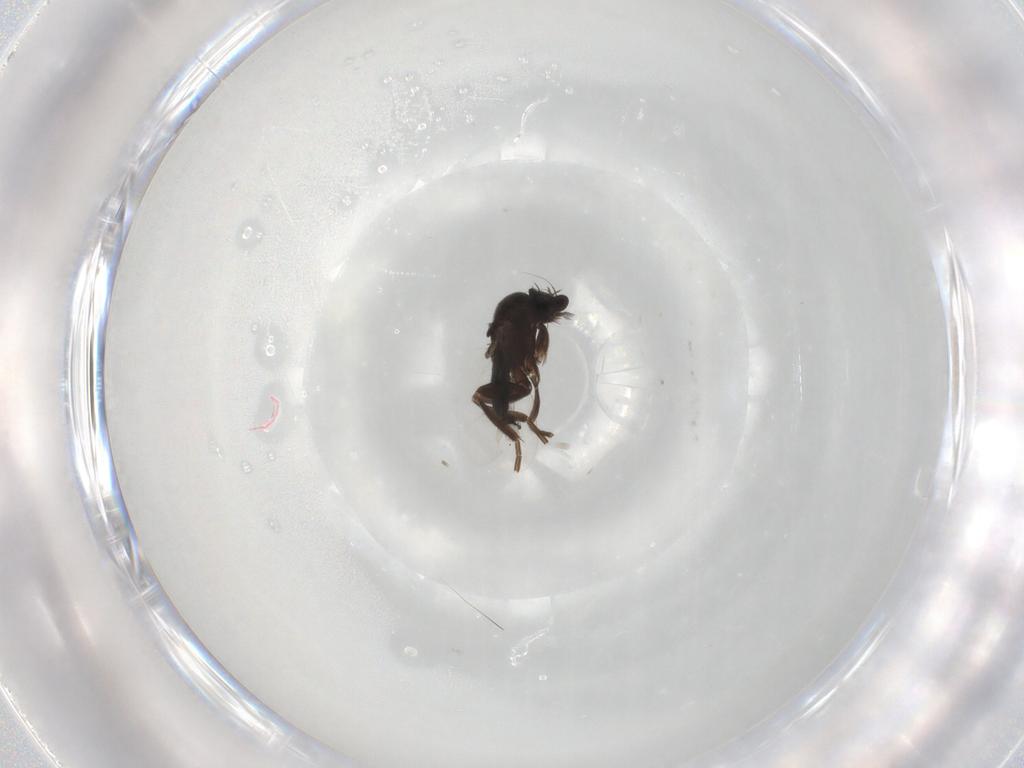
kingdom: Animalia
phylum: Arthropoda
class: Insecta
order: Diptera
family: Phoridae
